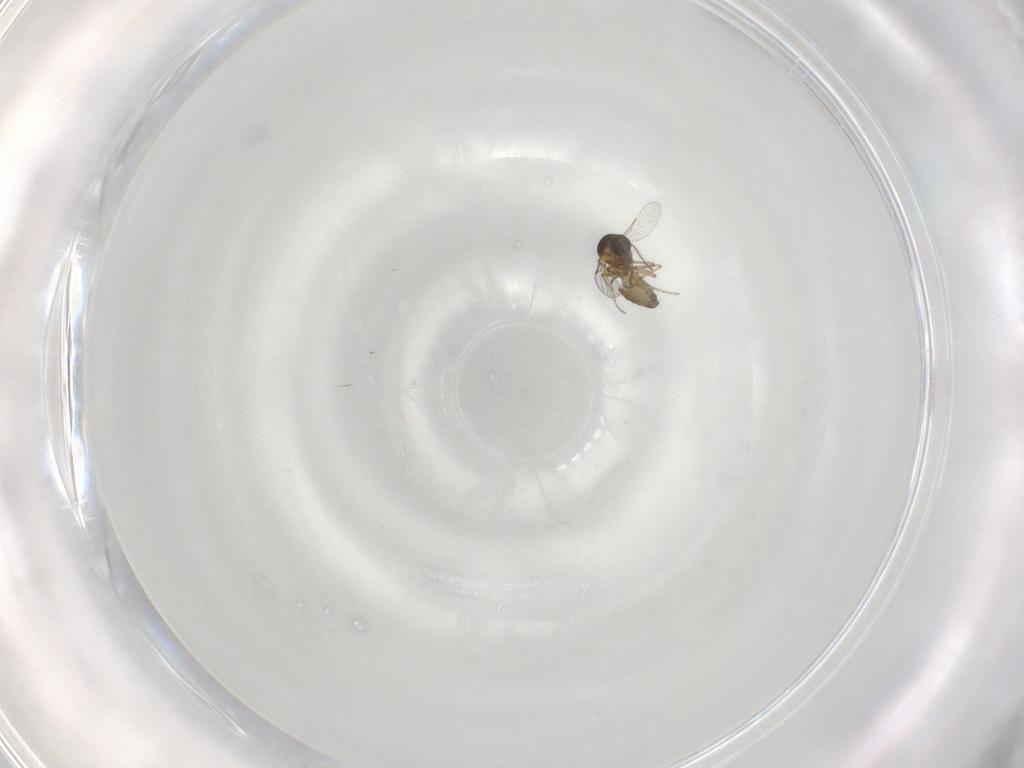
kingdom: Animalia
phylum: Arthropoda
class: Insecta
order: Diptera
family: Ceratopogonidae
